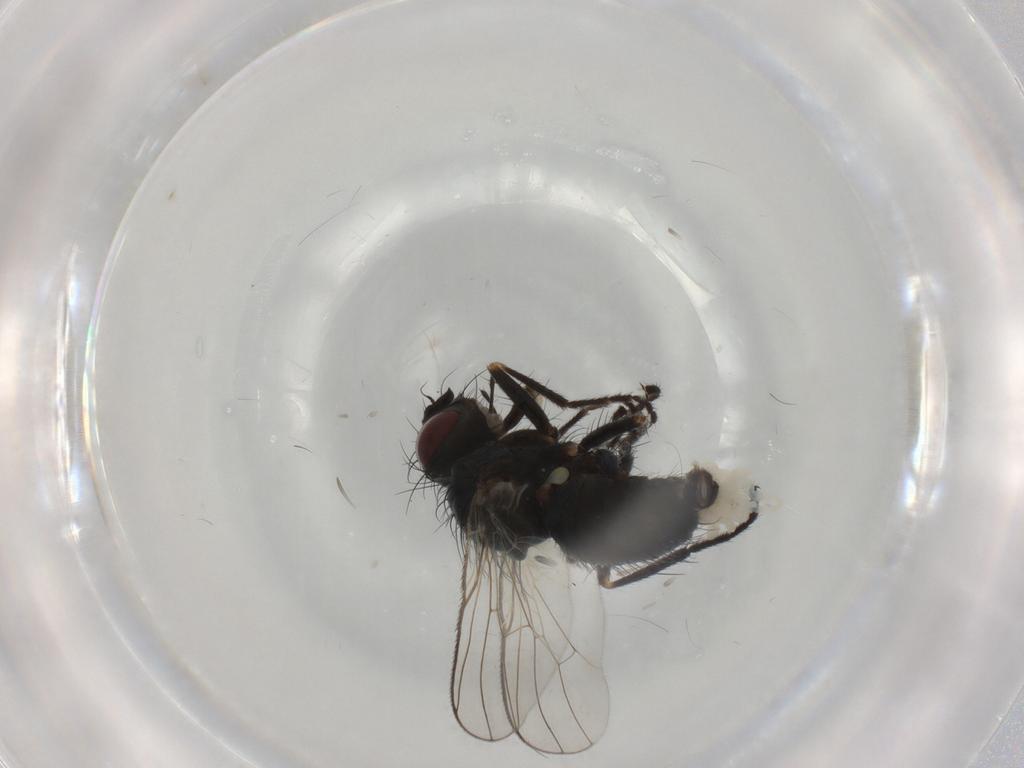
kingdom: Animalia
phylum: Arthropoda
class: Insecta
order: Diptera
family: Muscidae
